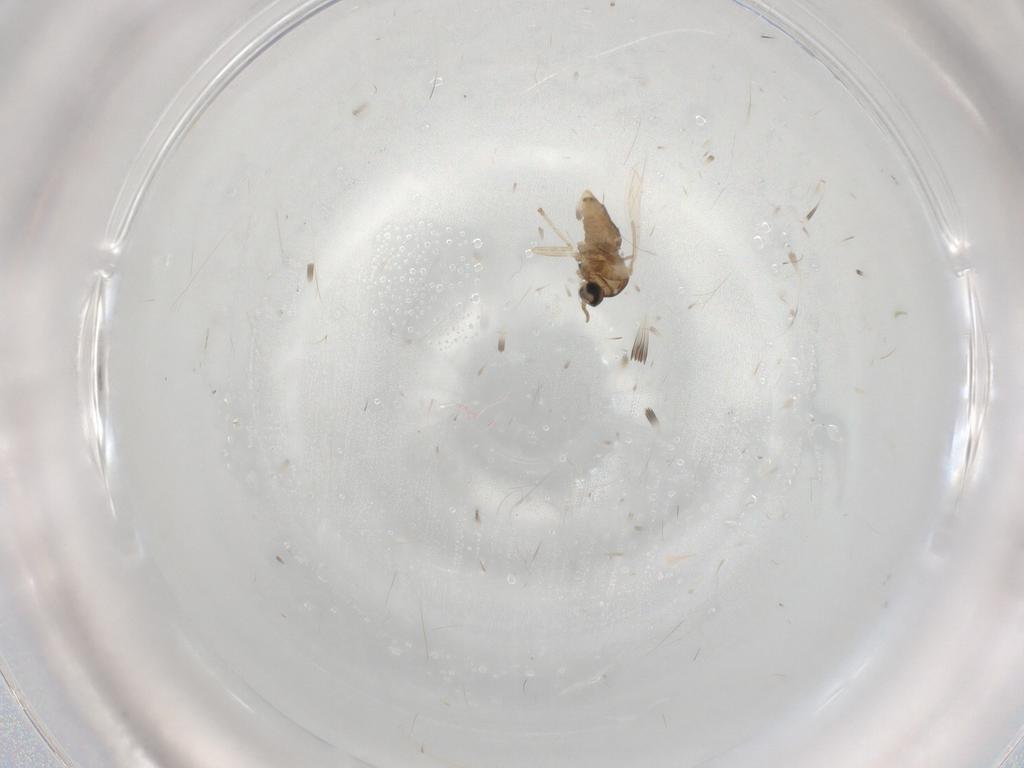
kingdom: Animalia
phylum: Arthropoda
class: Insecta
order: Diptera
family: Cecidomyiidae
